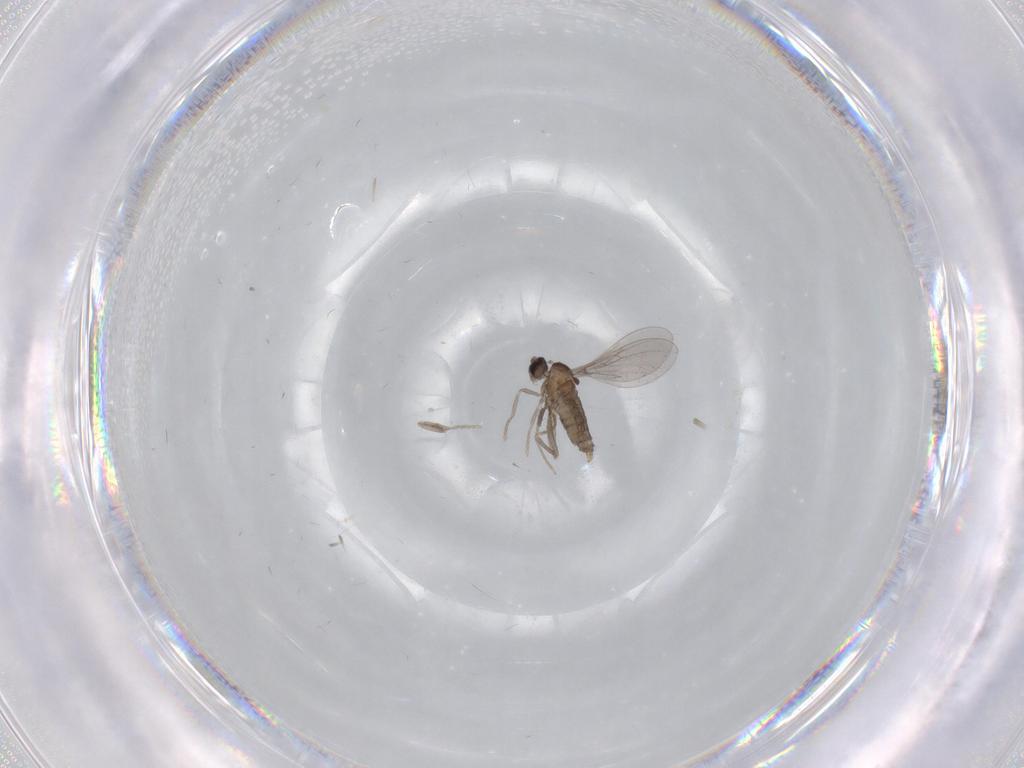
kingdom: Animalia
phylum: Arthropoda
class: Insecta
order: Diptera
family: Cecidomyiidae
